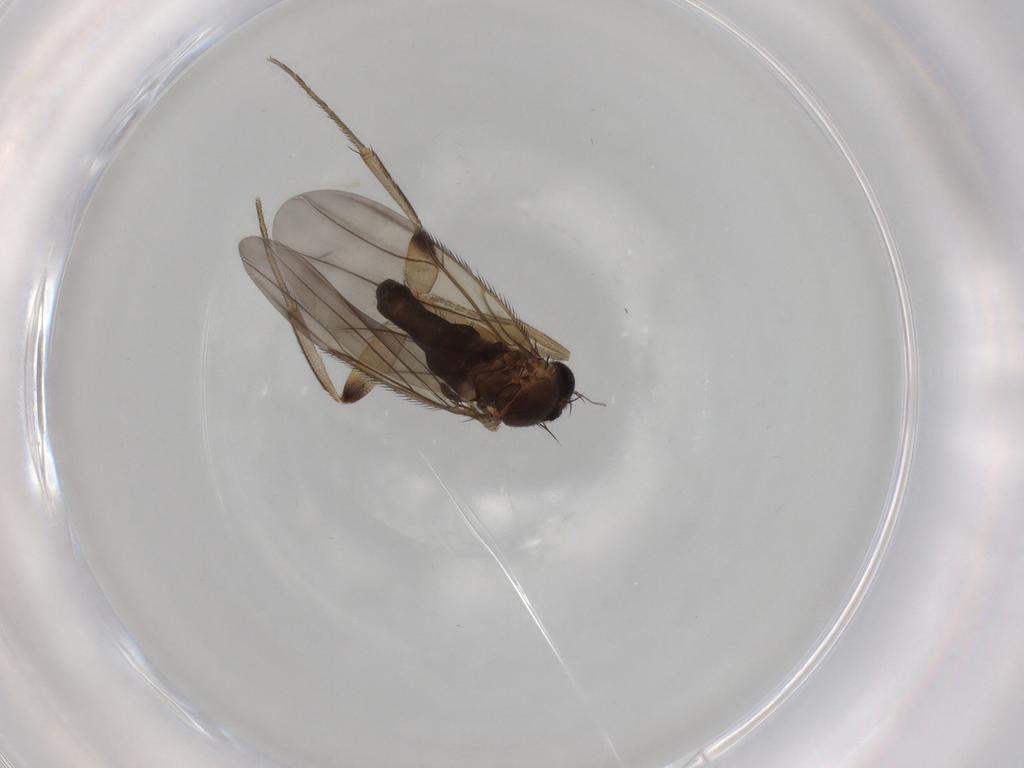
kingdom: Animalia
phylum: Arthropoda
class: Insecta
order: Diptera
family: Phoridae
